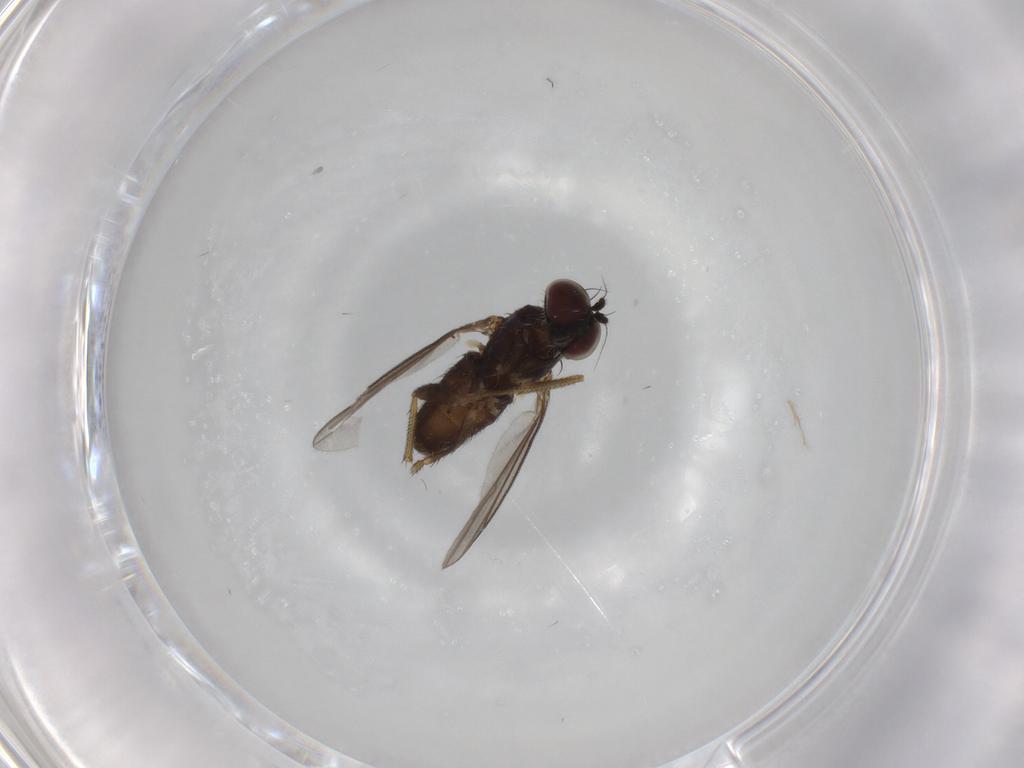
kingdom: Animalia
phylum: Arthropoda
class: Insecta
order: Diptera
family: Dolichopodidae
